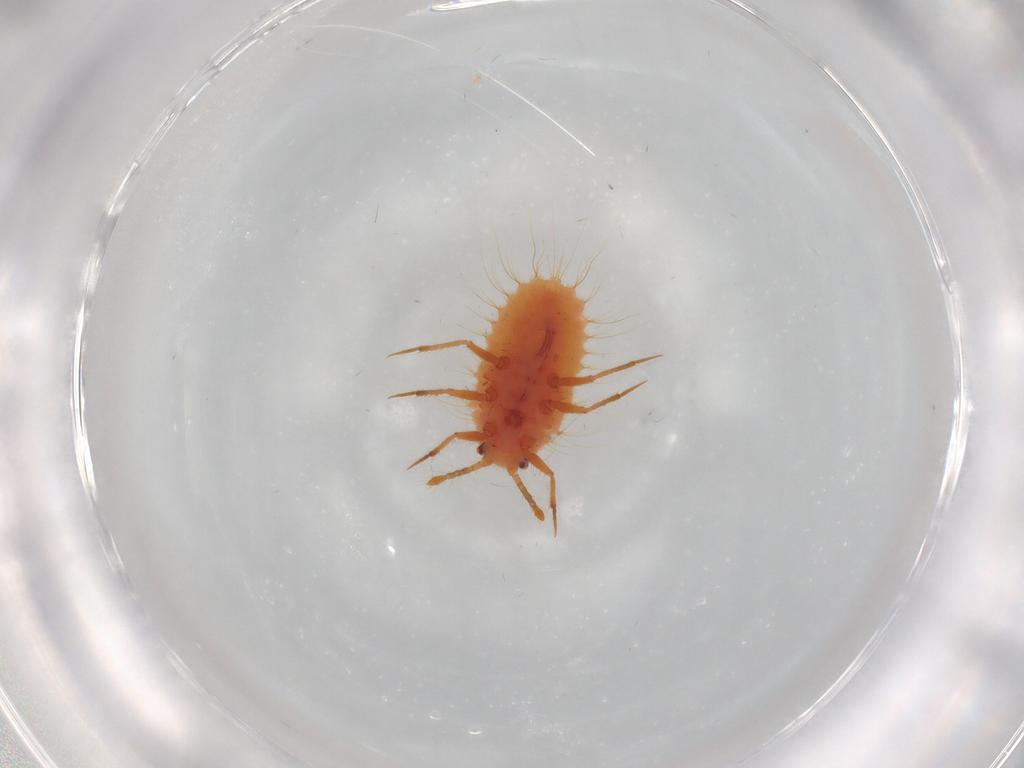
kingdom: Animalia
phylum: Arthropoda
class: Insecta
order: Hemiptera
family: Coccoidea_incertae_sedis
